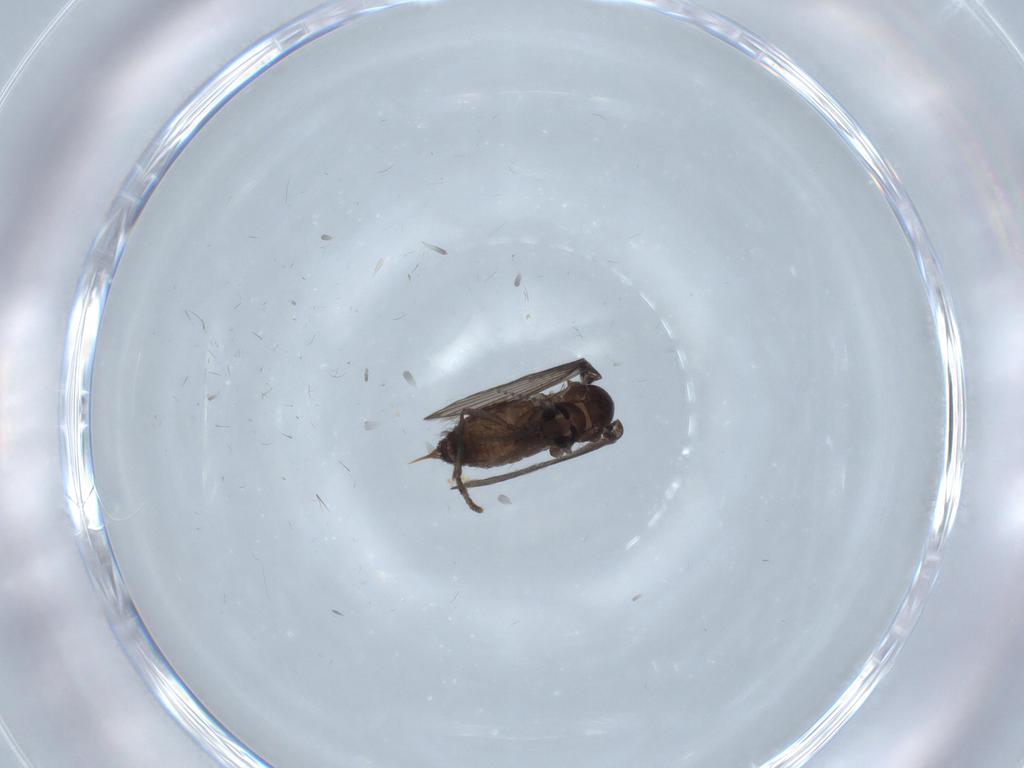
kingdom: Animalia
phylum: Arthropoda
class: Insecta
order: Diptera
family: Psychodidae
